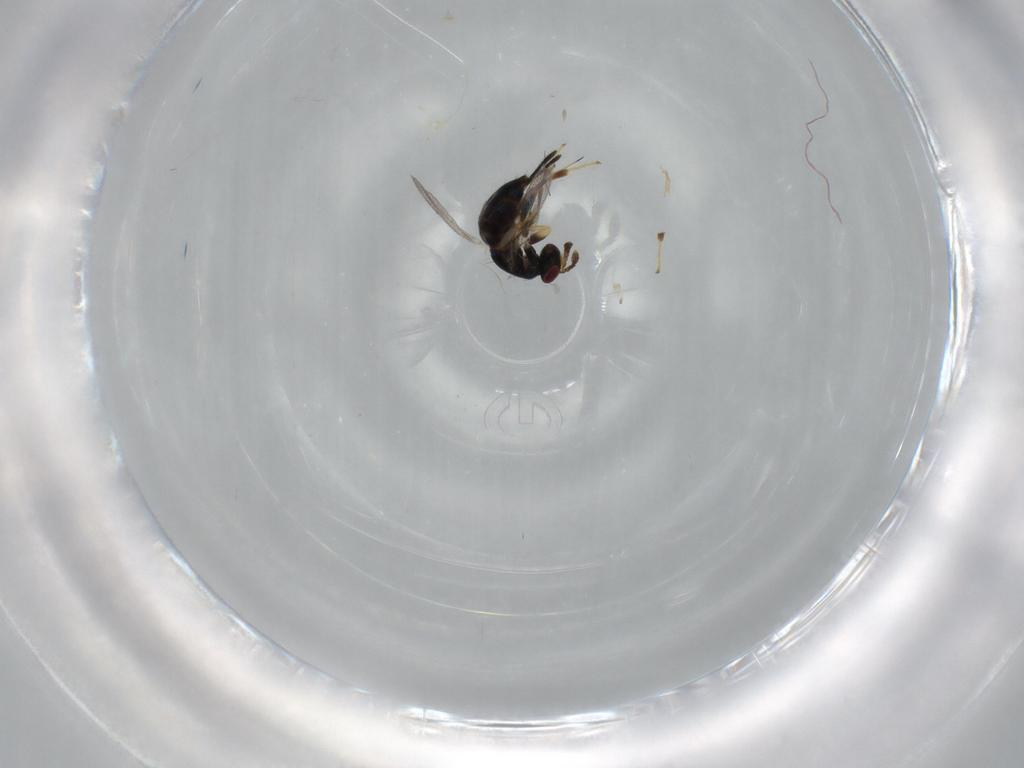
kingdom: Animalia
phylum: Arthropoda
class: Insecta
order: Hymenoptera
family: Torymidae
